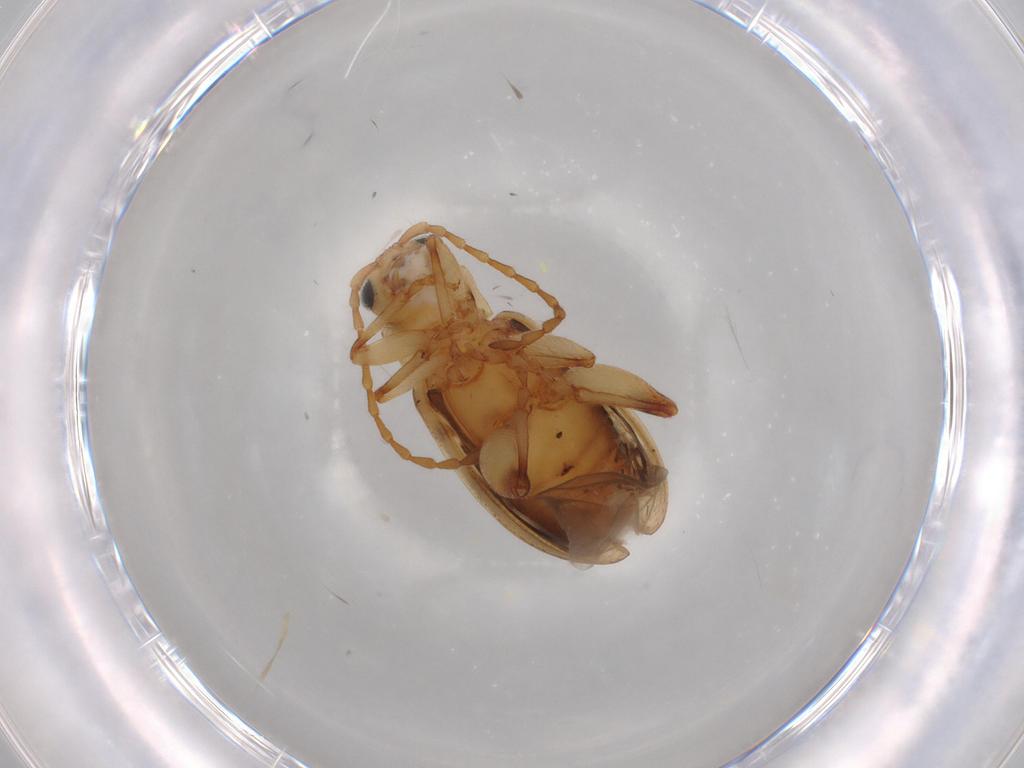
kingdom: Animalia
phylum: Arthropoda
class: Insecta
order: Coleoptera
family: Chrysomelidae
